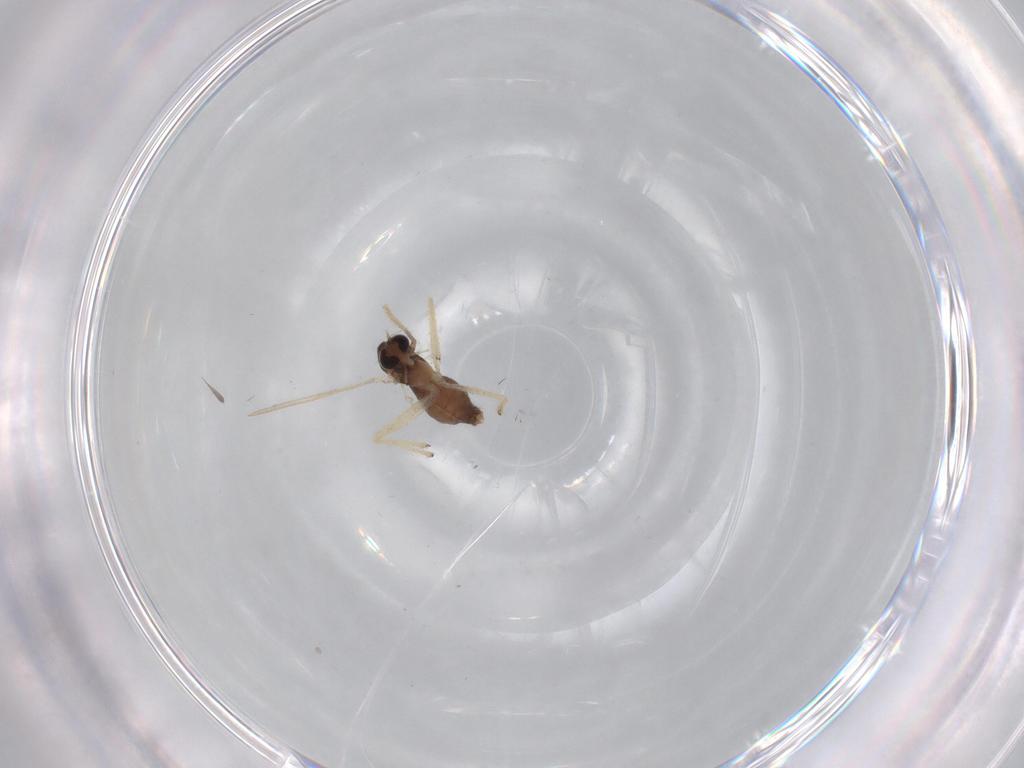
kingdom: Animalia
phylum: Arthropoda
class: Insecta
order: Diptera
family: Chironomidae
